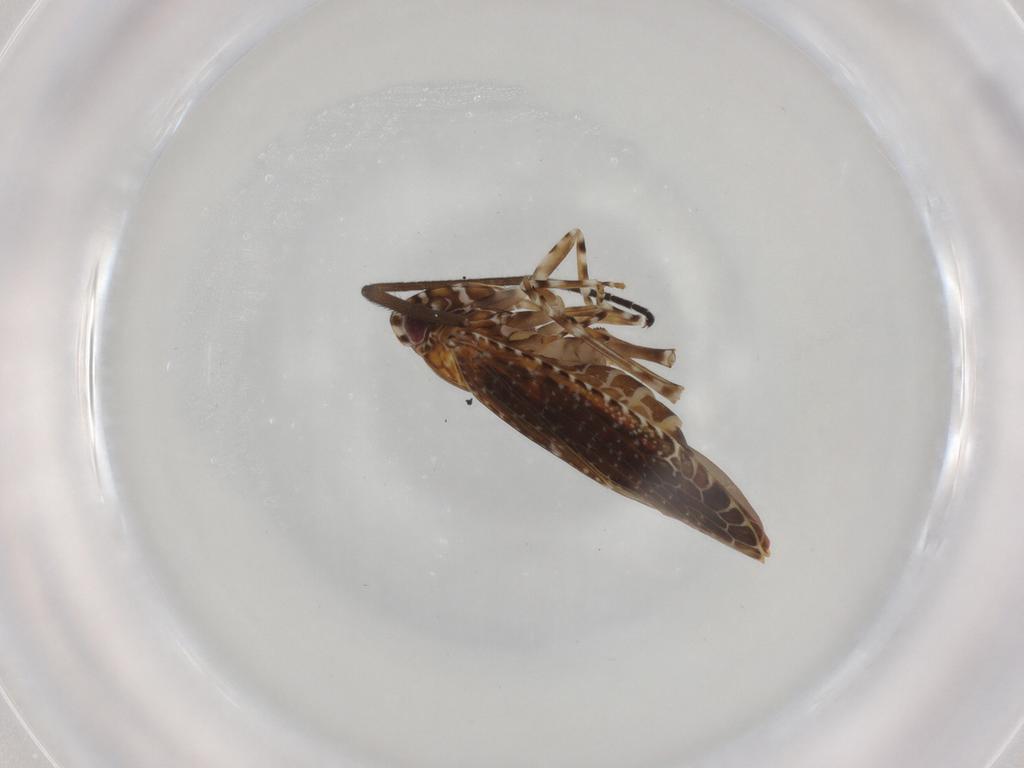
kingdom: Animalia
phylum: Arthropoda
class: Insecta
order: Hemiptera
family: Achilidae
